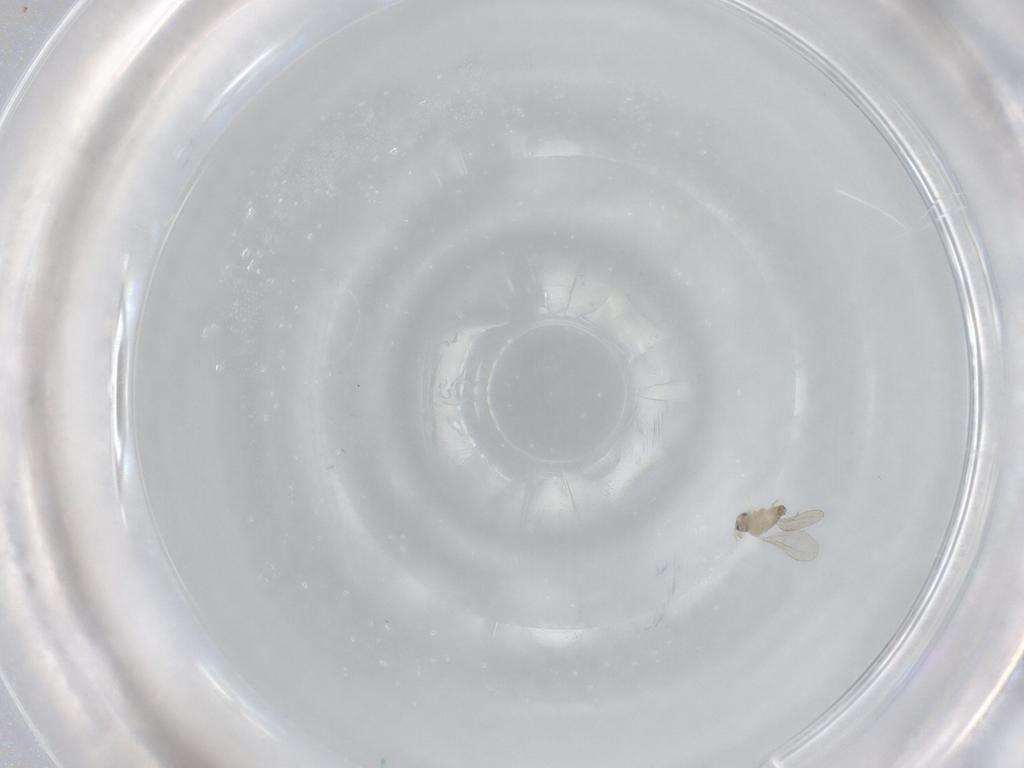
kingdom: Animalia
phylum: Arthropoda
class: Insecta
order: Diptera
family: Cecidomyiidae
